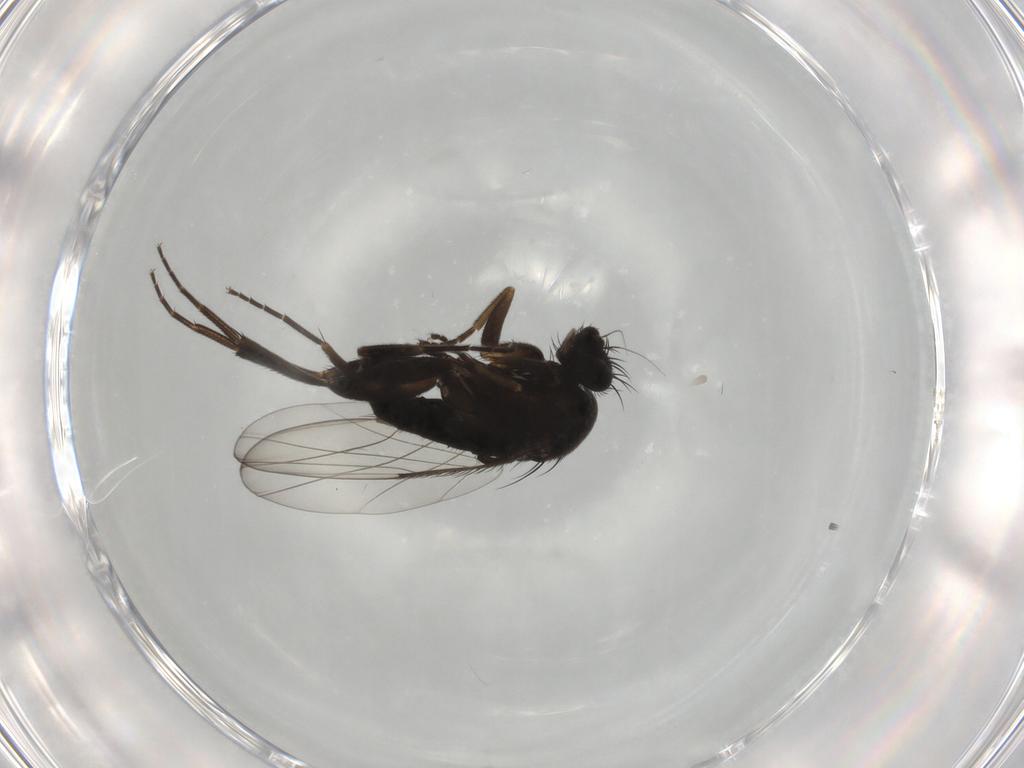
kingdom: Animalia
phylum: Arthropoda
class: Insecta
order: Diptera
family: Phoridae
